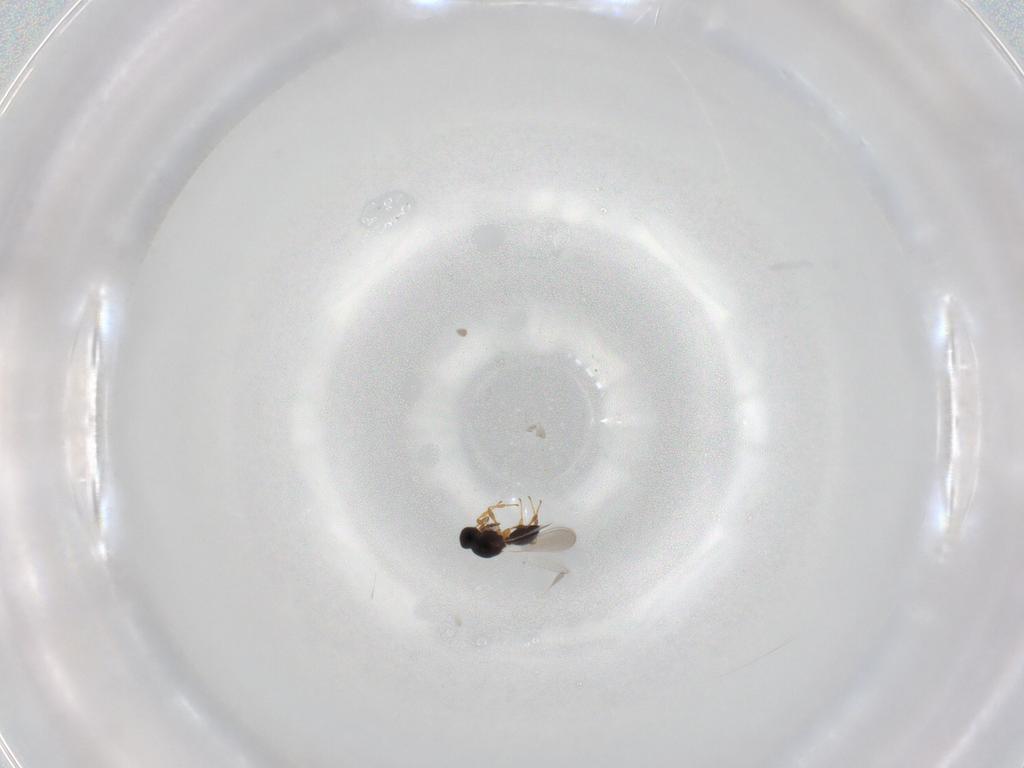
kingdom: Animalia
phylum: Arthropoda
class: Insecta
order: Hymenoptera
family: Platygastridae
